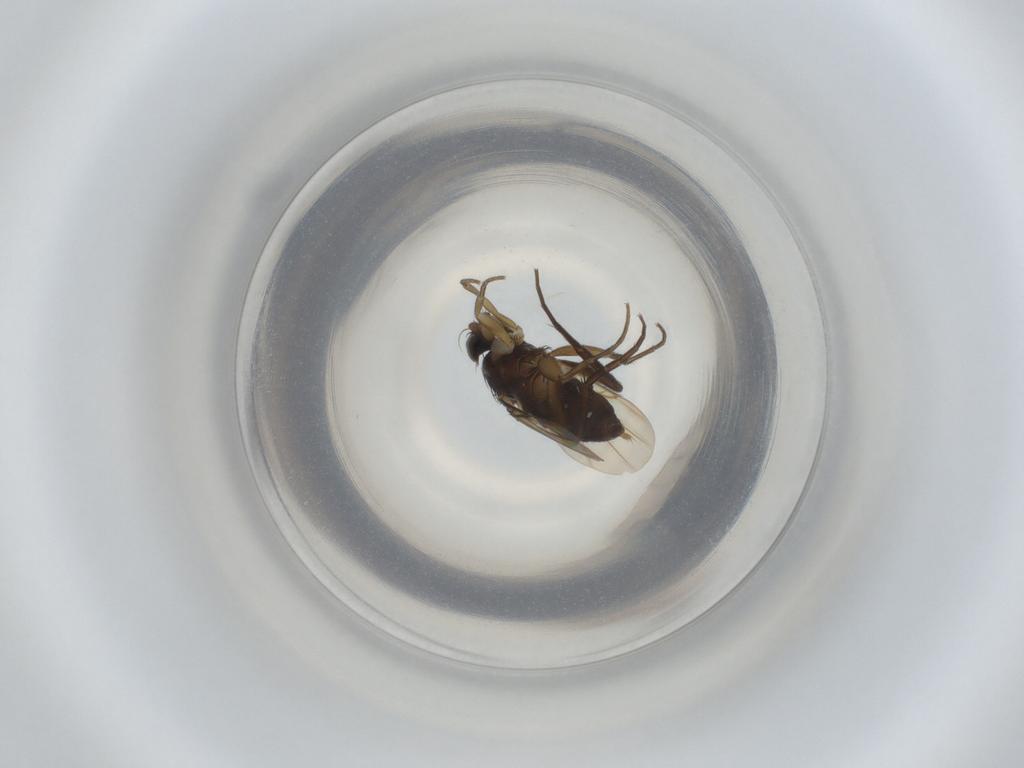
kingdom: Animalia
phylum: Arthropoda
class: Insecta
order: Diptera
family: Phoridae
